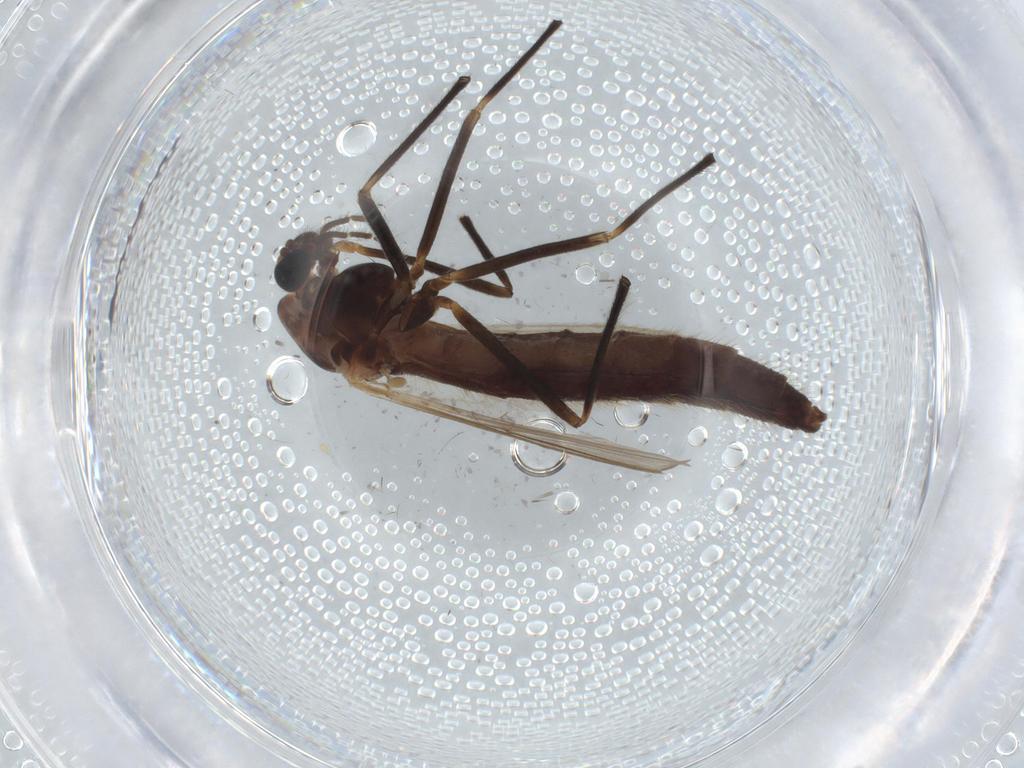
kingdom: Animalia
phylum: Arthropoda
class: Insecta
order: Diptera
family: Chironomidae
